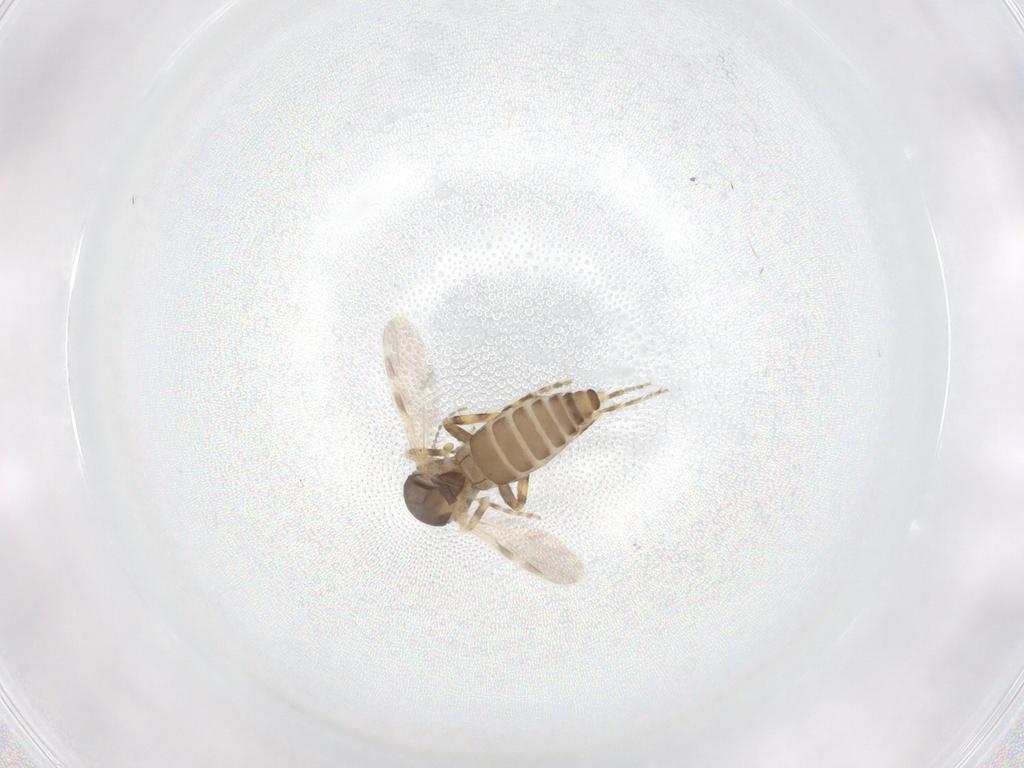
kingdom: Animalia
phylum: Arthropoda
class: Insecta
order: Diptera
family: Ceratopogonidae
